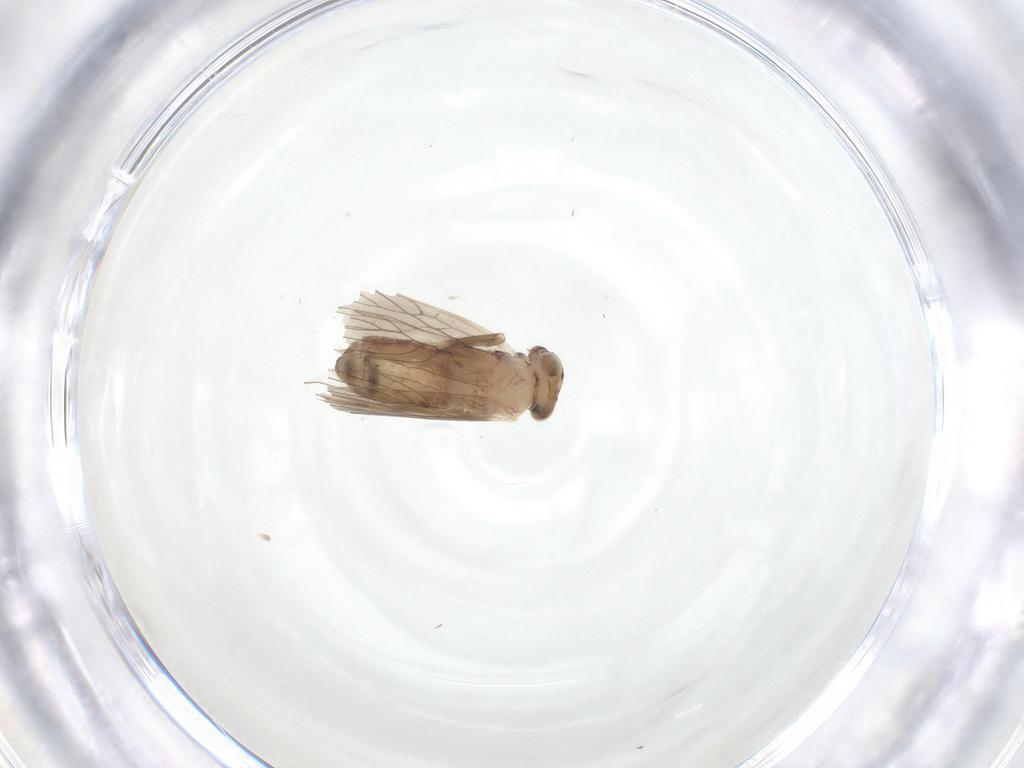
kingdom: Animalia
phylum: Arthropoda
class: Insecta
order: Psocodea
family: Lepidopsocidae
